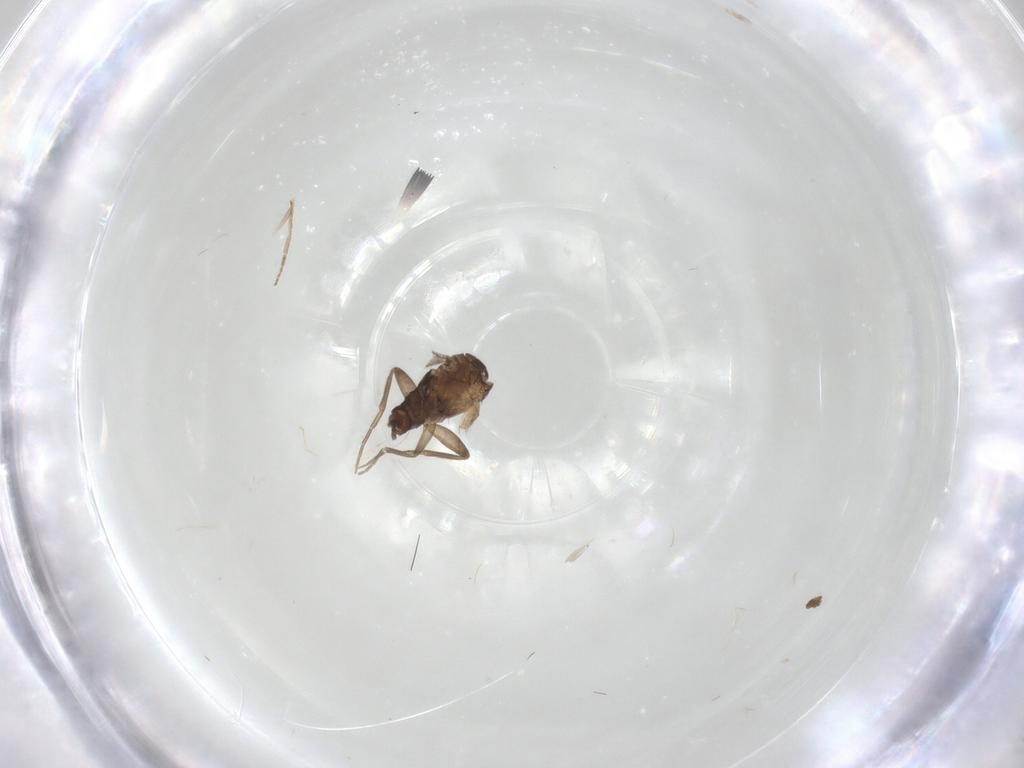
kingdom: Animalia
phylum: Arthropoda
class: Insecta
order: Diptera
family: Phoridae
